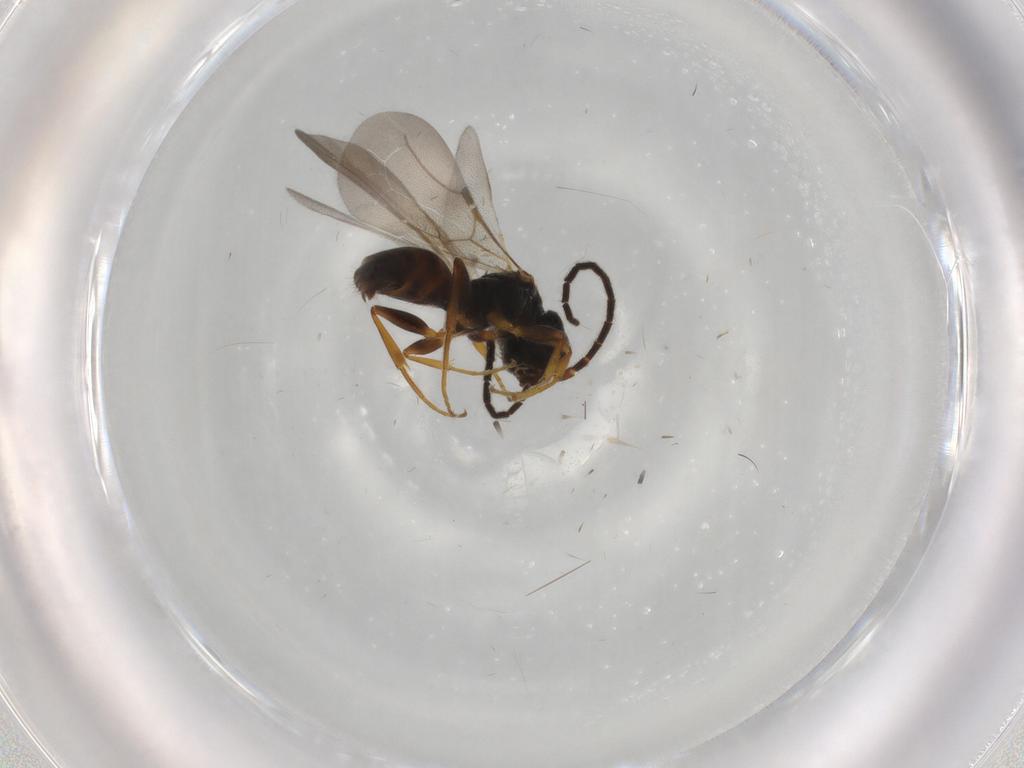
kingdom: Animalia
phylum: Arthropoda
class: Insecta
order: Hymenoptera
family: Bethylidae
